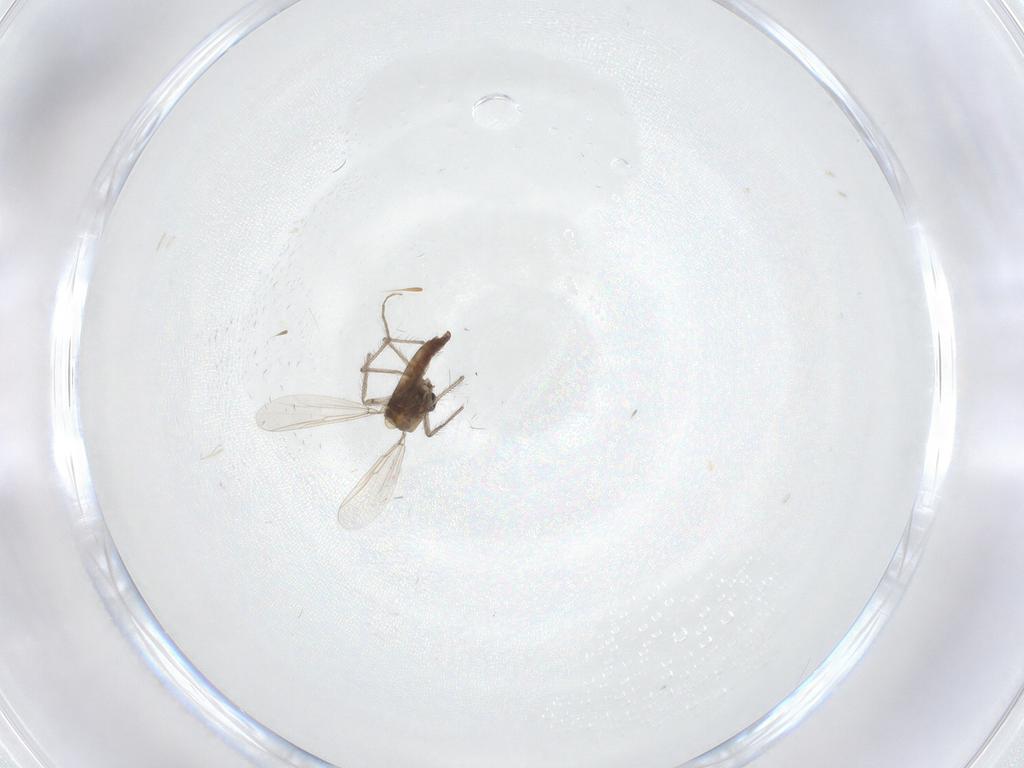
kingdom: Animalia
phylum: Arthropoda
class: Insecta
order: Diptera
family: Chironomidae
